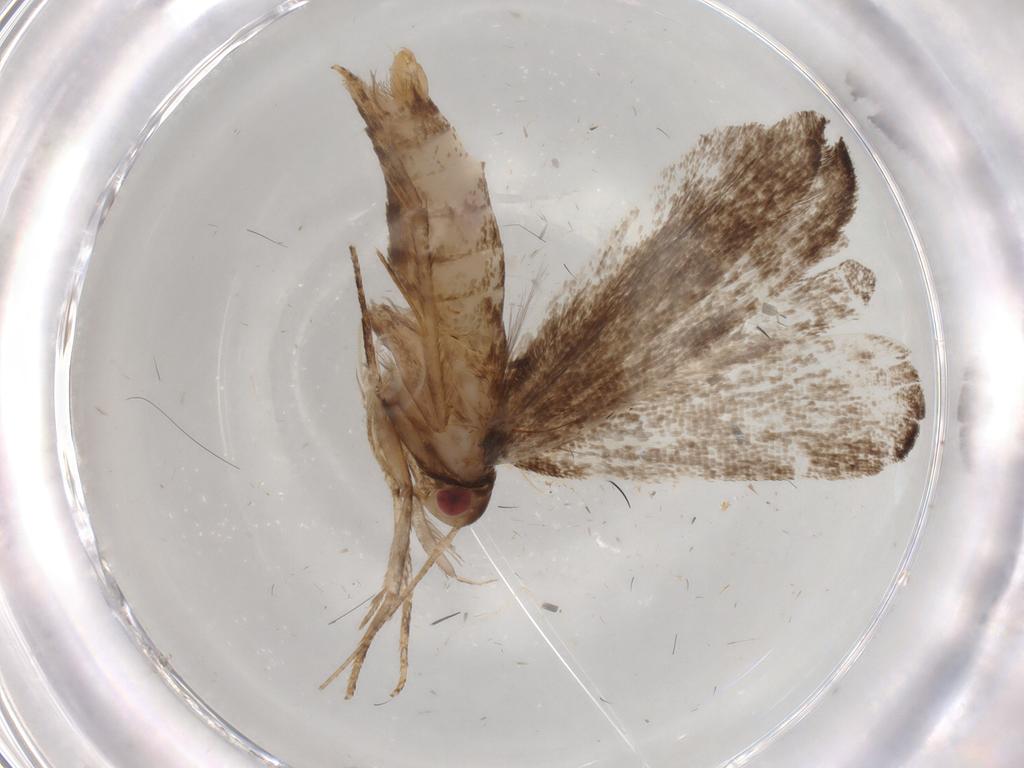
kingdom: Animalia
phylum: Arthropoda
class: Insecta
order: Lepidoptera
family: Gelechiidae
